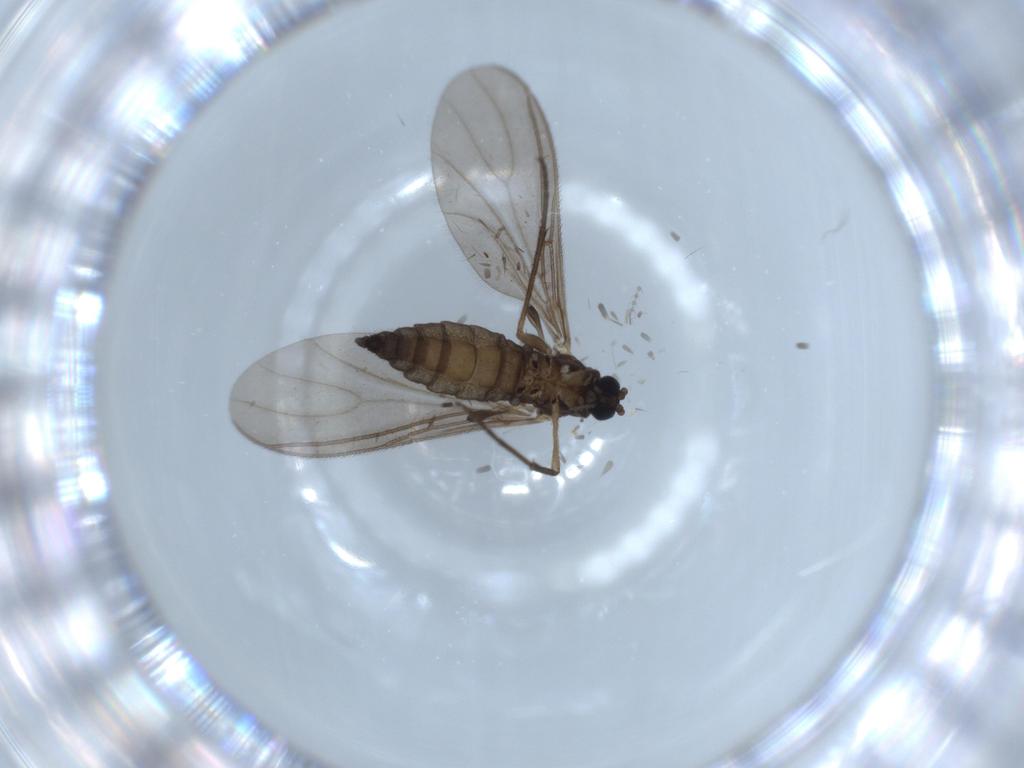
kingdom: Animalia
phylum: Arthropoda
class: Insecta
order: Diptera
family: Sciaridae
